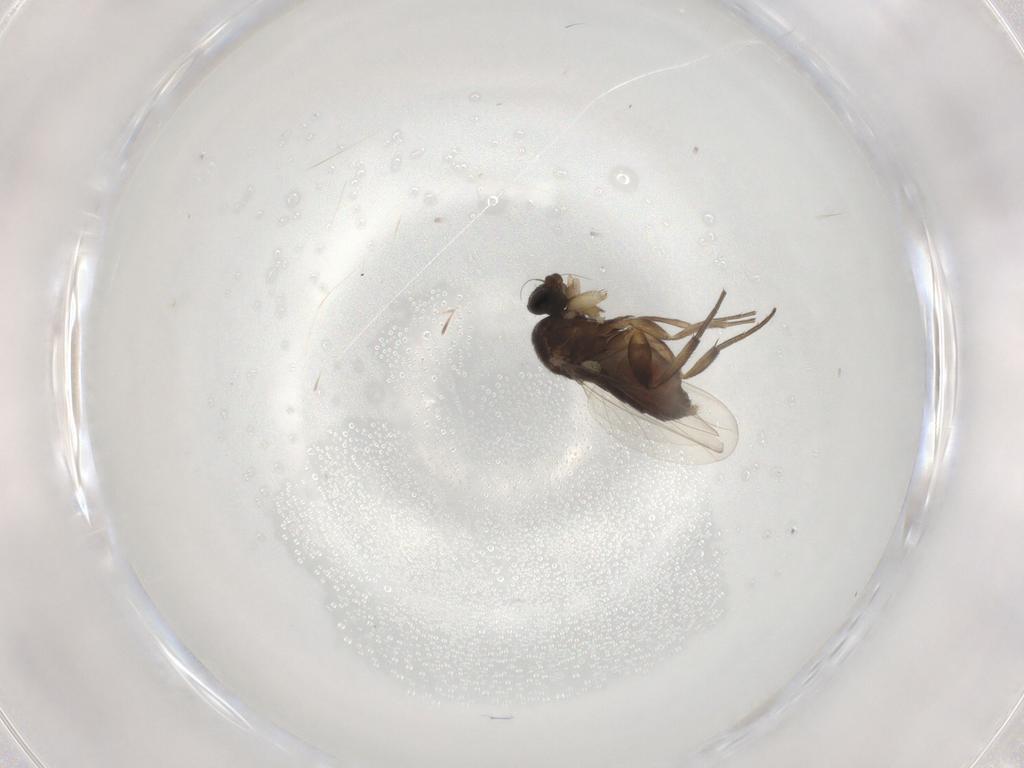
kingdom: Animalia
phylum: Arthropoda
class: Insecta
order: Diptera
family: Phoridae
